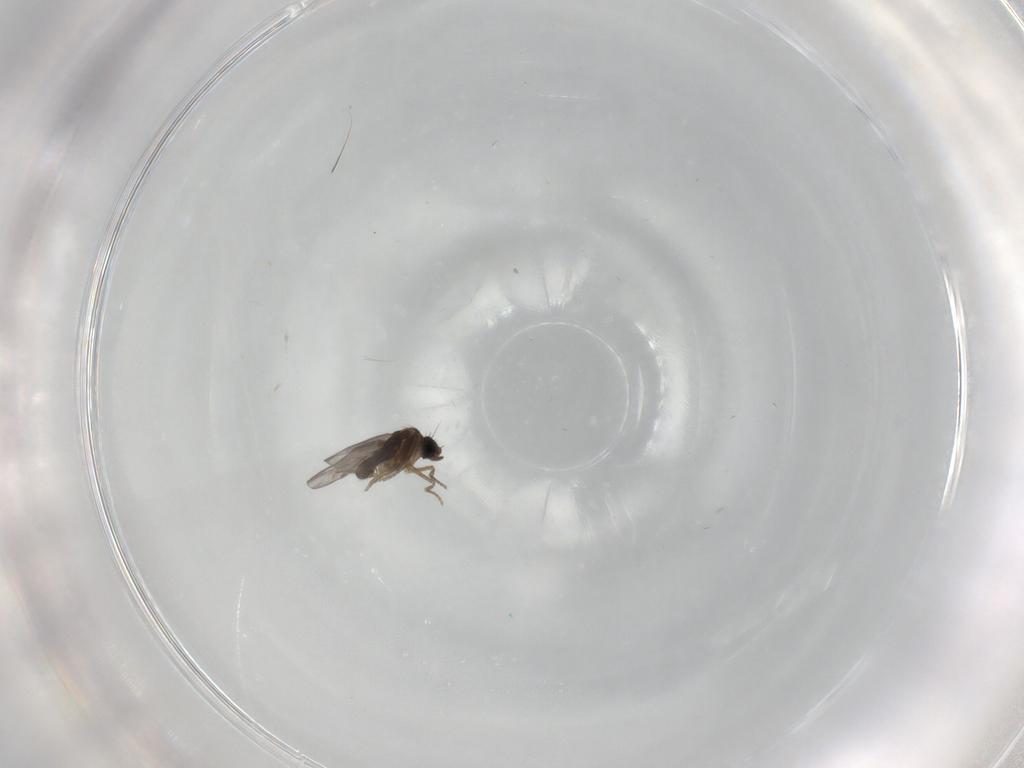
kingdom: Animalia
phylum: Arthropoda
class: Insecta
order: Diptera
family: Psychodidae
